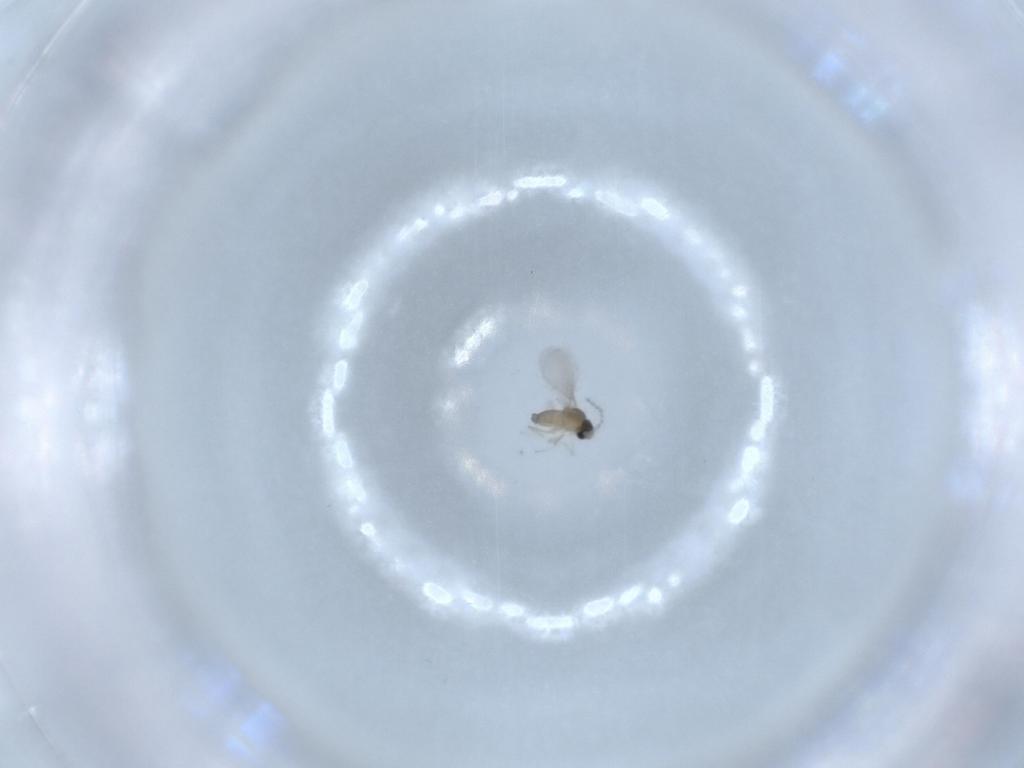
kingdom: Animalia
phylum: Arthropoda
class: Insecta
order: Diptera
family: Cecidomyiidae
